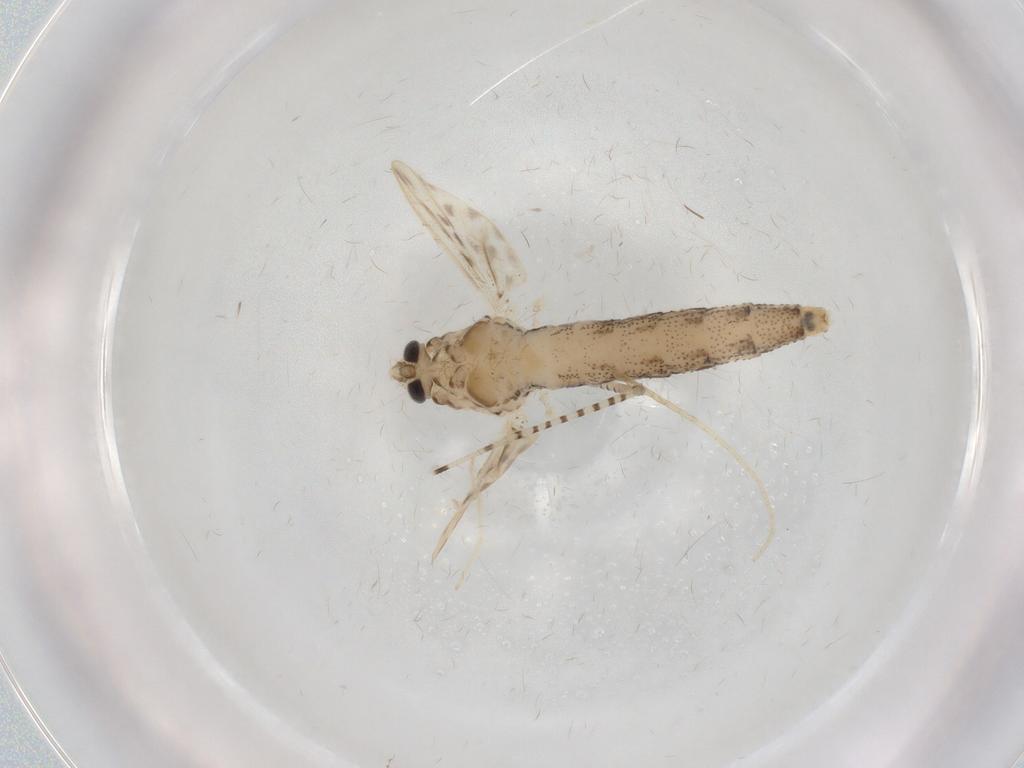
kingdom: Animalia
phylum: Arthropoda
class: Insecta
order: Diptera
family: Chaoboridae
